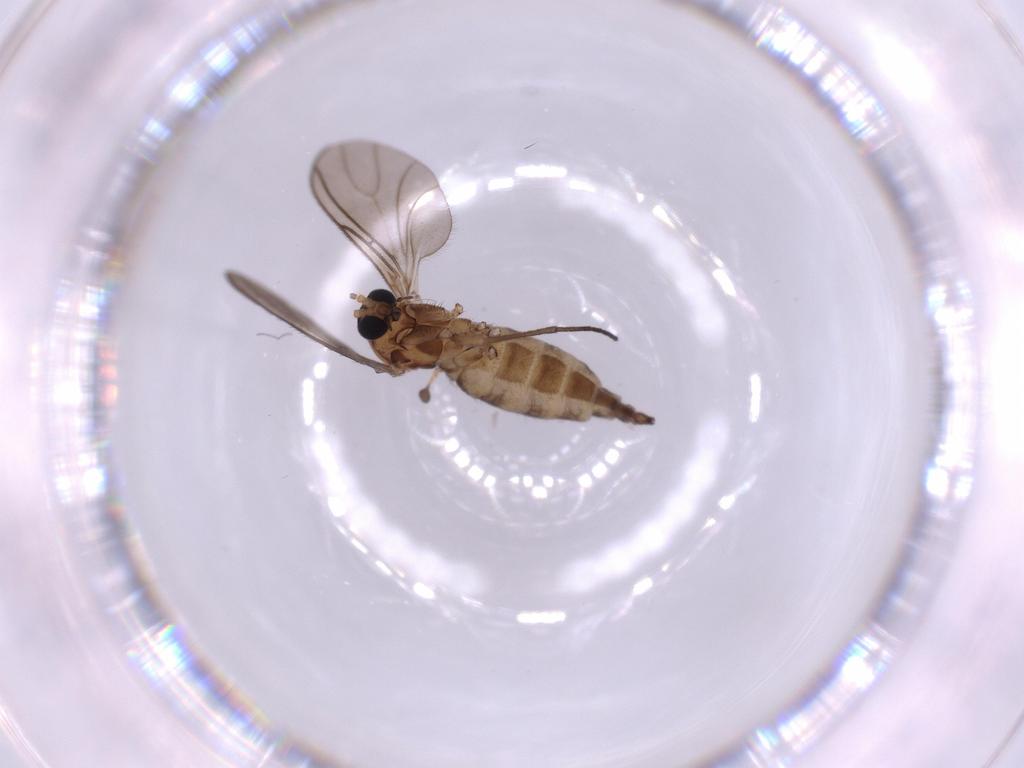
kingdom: Animalia
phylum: Arthropoda
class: Insecta
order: Diptera
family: Sciaridae
